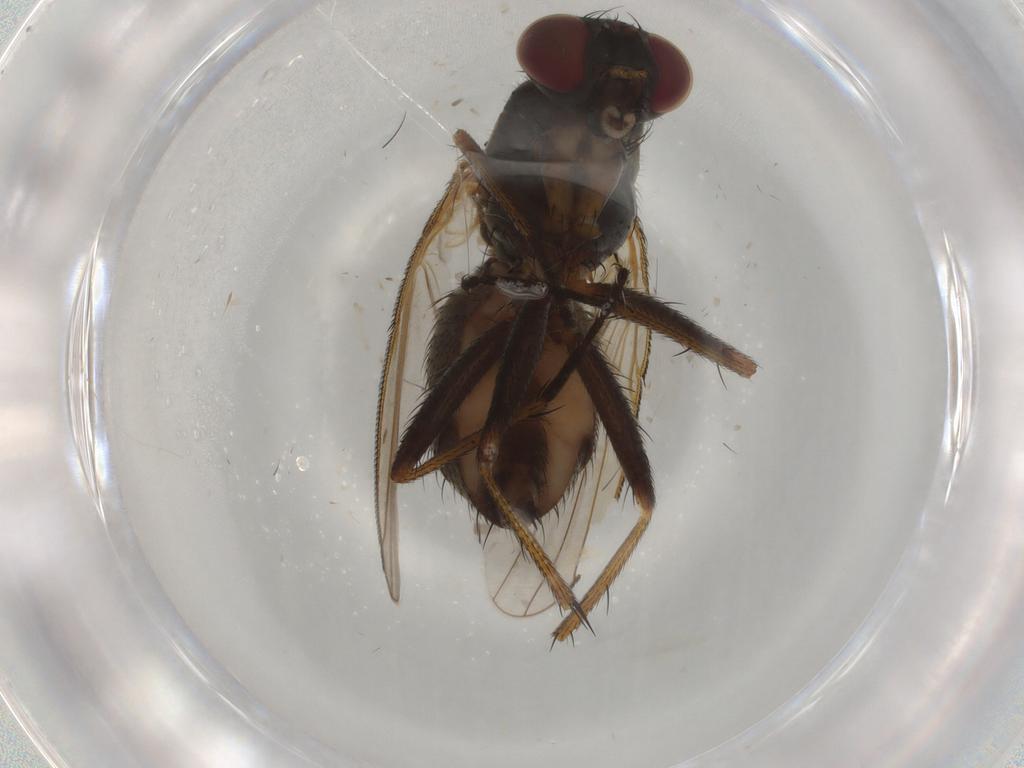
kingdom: Animalia
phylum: Arthropoda
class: Insecta
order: Diptera
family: Muscidae
